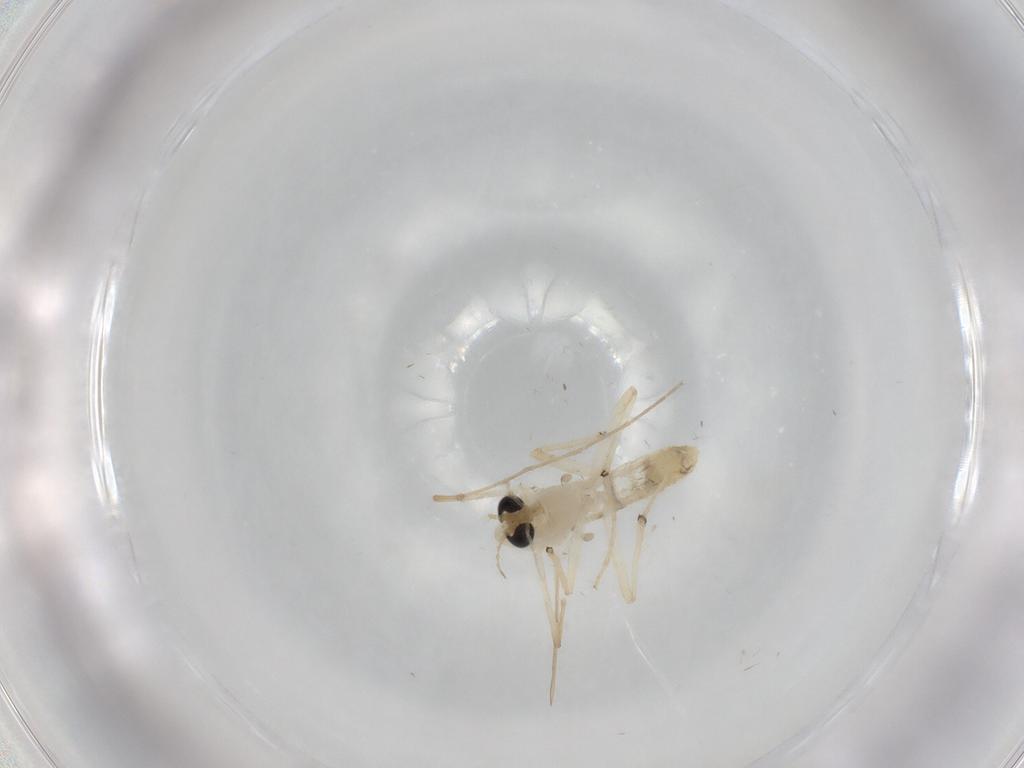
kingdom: Animalia
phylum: Arthropoda
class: Insecta
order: Diptera
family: Chironomidae
